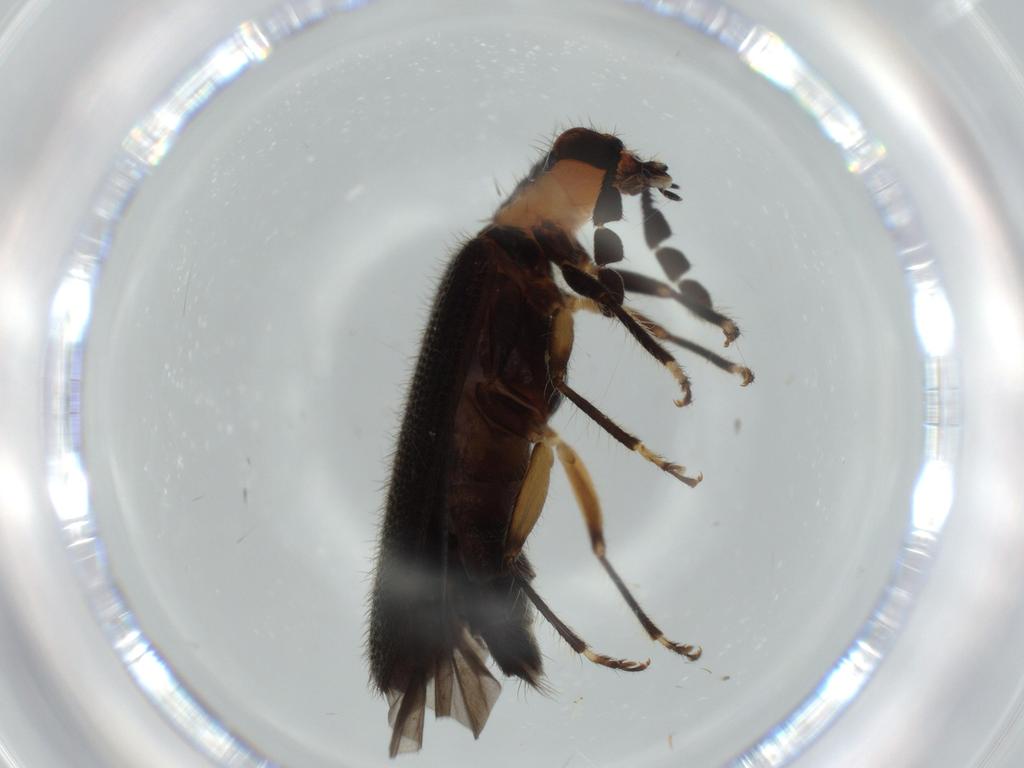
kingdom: Animalia
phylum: Arthropoda
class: Insecta
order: Coleoptera
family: Cleridae
